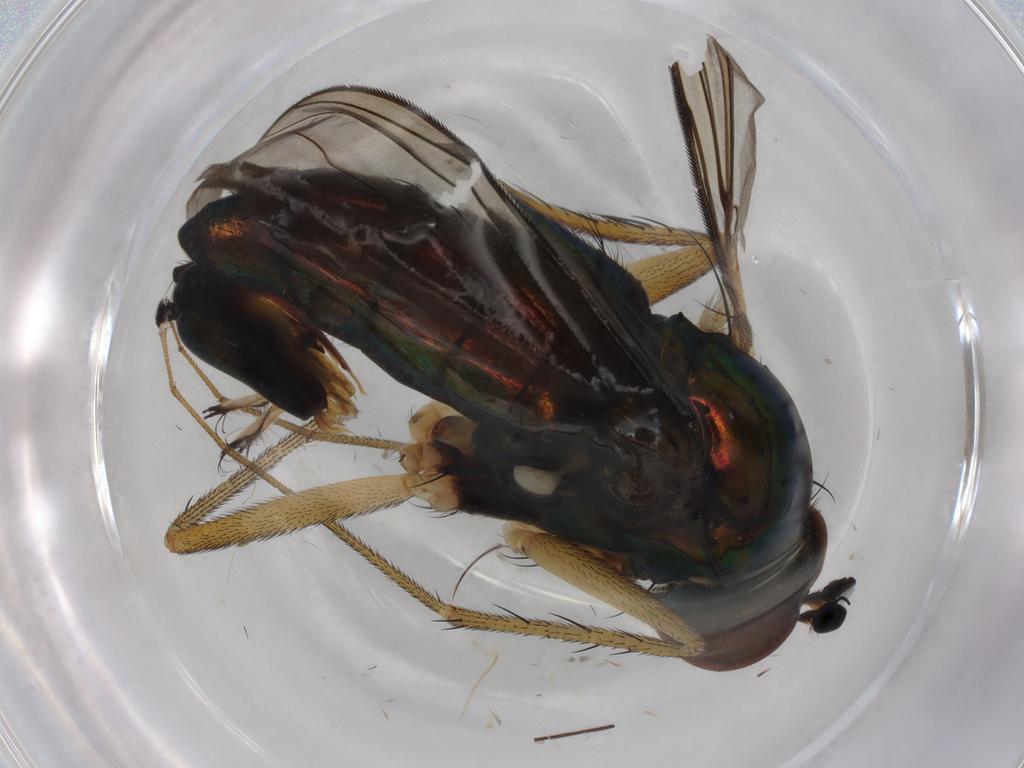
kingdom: Animalia
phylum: Arthropoda
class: Insecta
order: Diptera
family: Dolichopodidae
